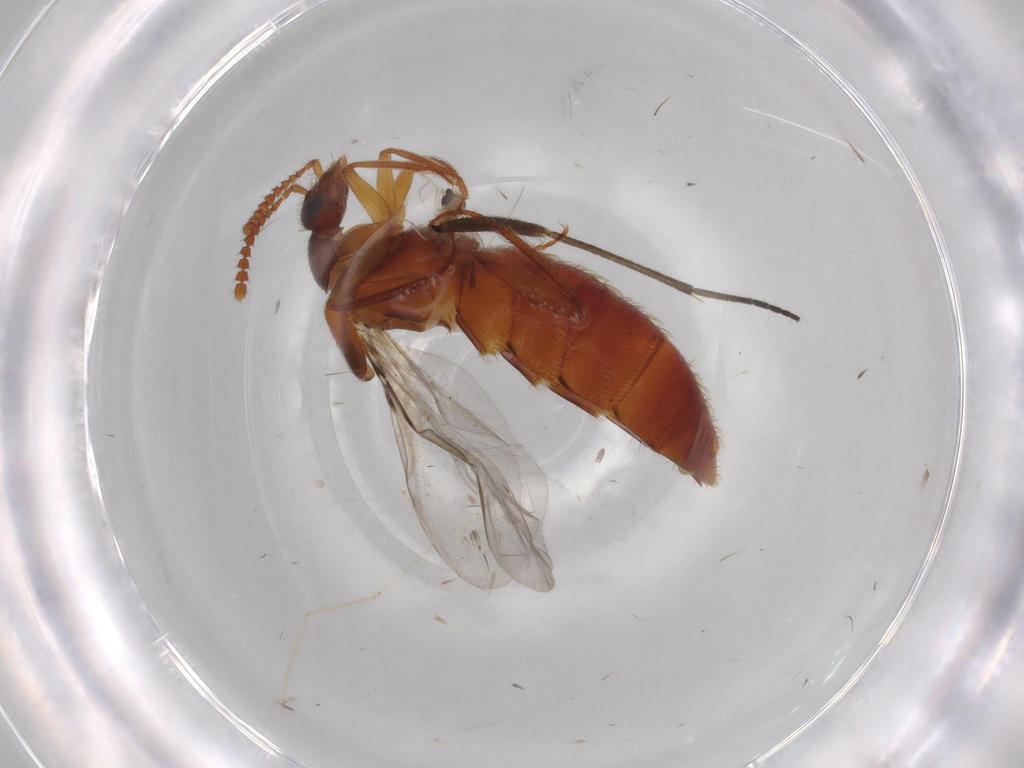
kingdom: Animalia
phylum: Arthropoda
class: Insecta
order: Coleoptera
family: Staphylinidae
